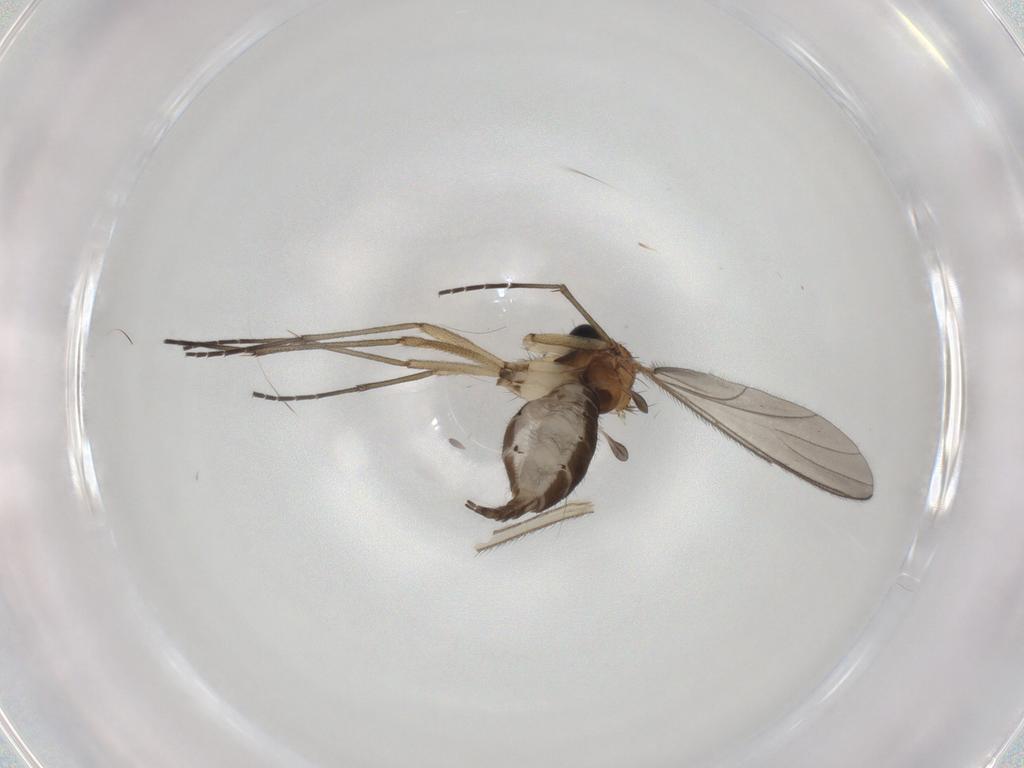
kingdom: Animalia
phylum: Arthropoda
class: Insecta
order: Diptera
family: Sciaridae
